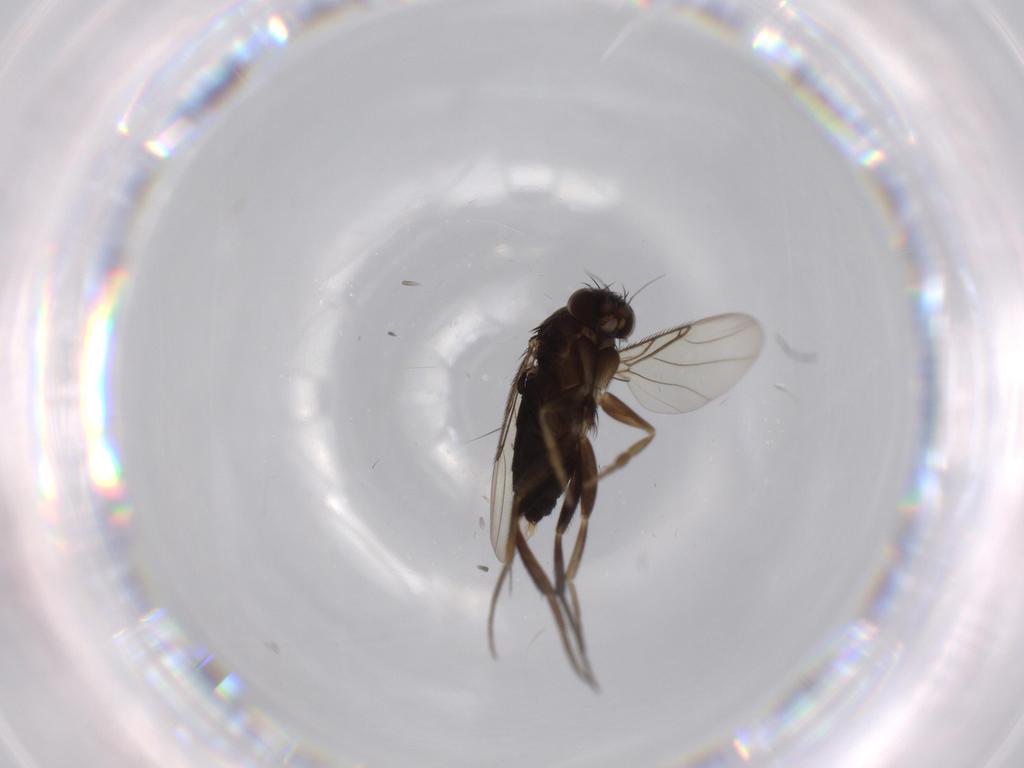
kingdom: Animalia
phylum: Arthropoda
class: Insecta
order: Diptera
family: Phoridae
